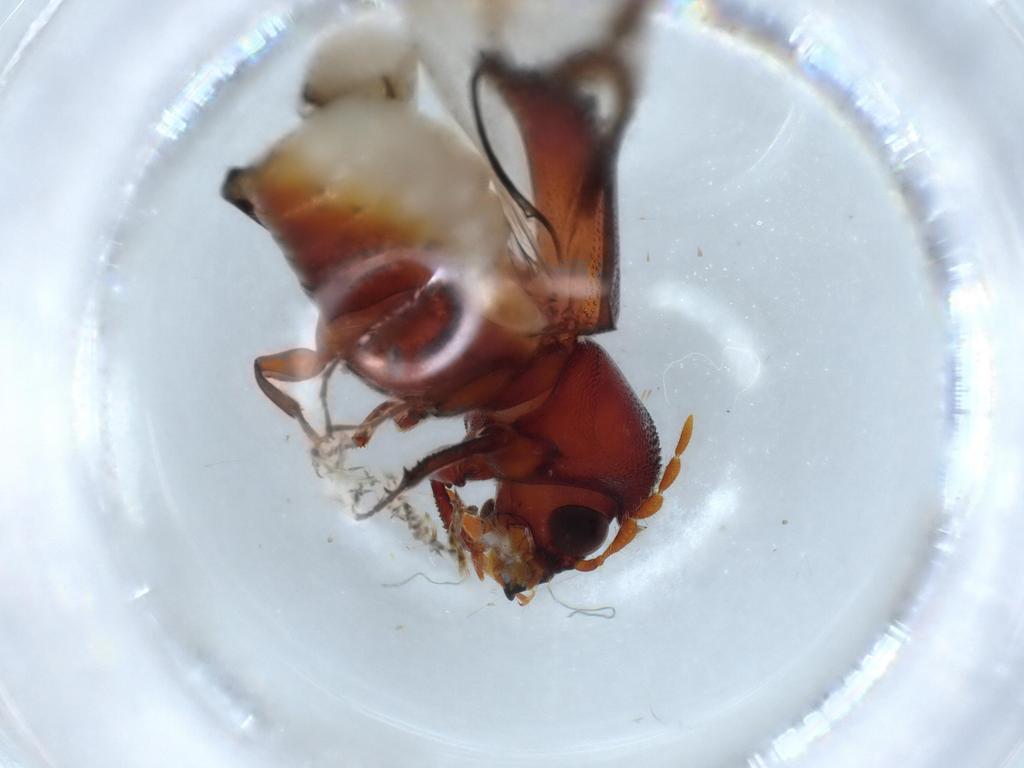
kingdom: Animalia
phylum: Arthropoda
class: Insecta
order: Coleoptera
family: Bostrichidae
